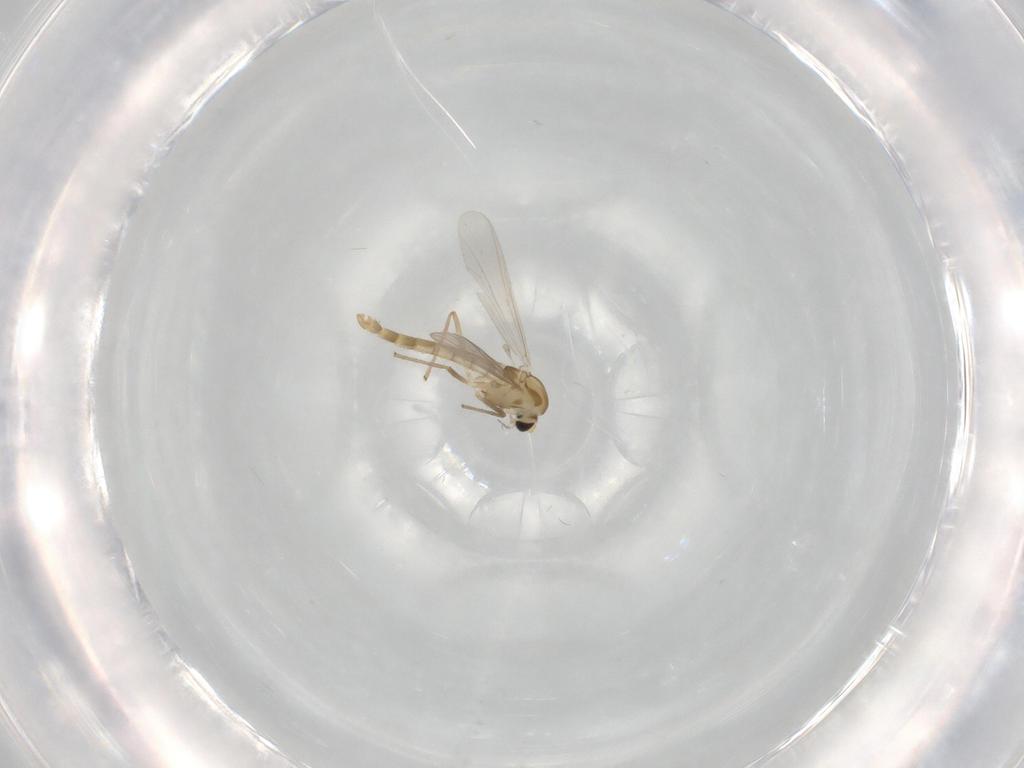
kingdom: Animalia
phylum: Arthropoda
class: Insecta
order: Diptera
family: Chironomidae
